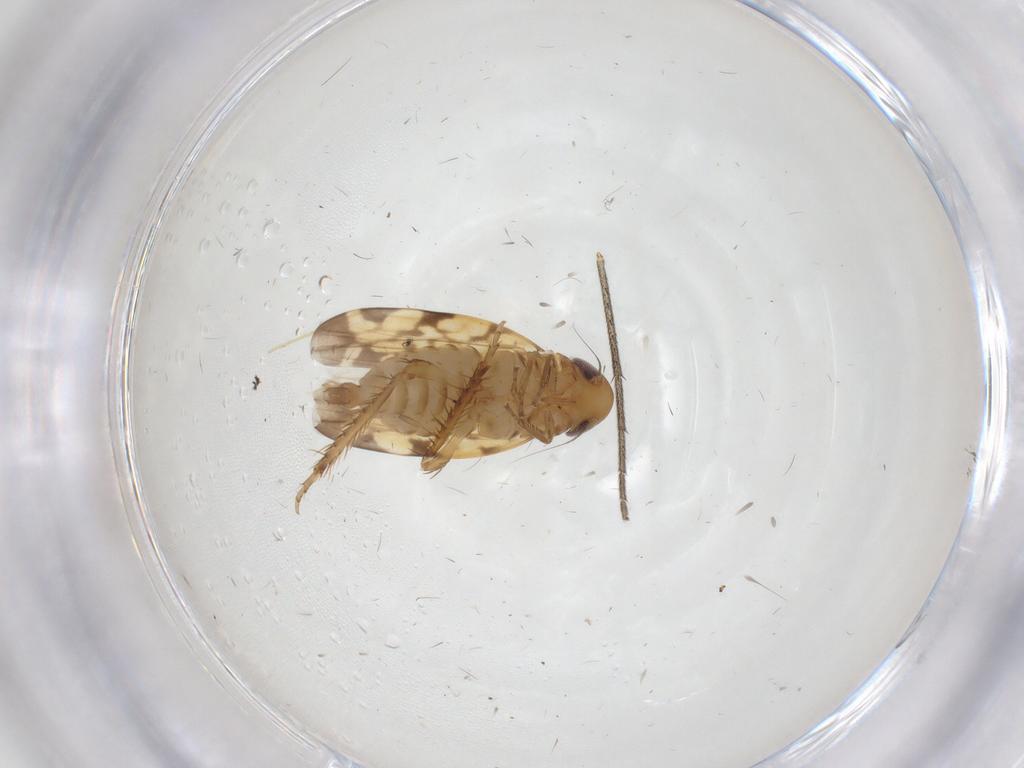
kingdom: Animalia
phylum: Arthropoda
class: Insecta
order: Hemiptera
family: Cicadellidae
